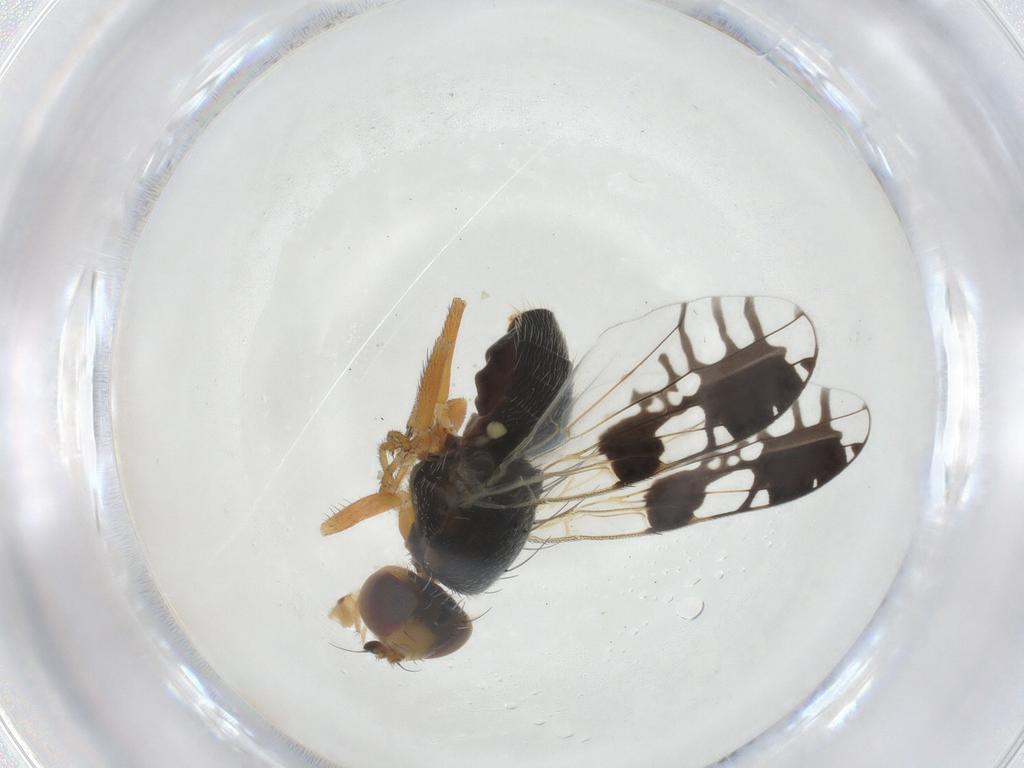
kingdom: Animalia
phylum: Arthropoda
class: Insecta
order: Diptera
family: Tephritidae
